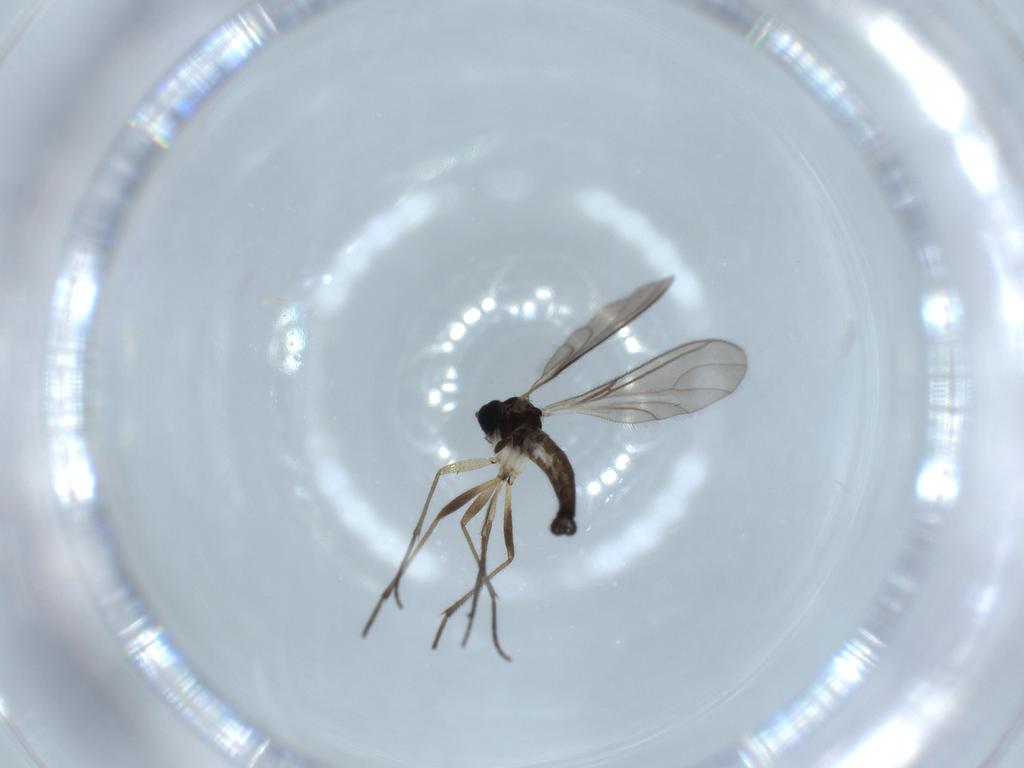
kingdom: Animalia
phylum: Arthropoda
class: Insecta
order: Diptera
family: Sciaridae
